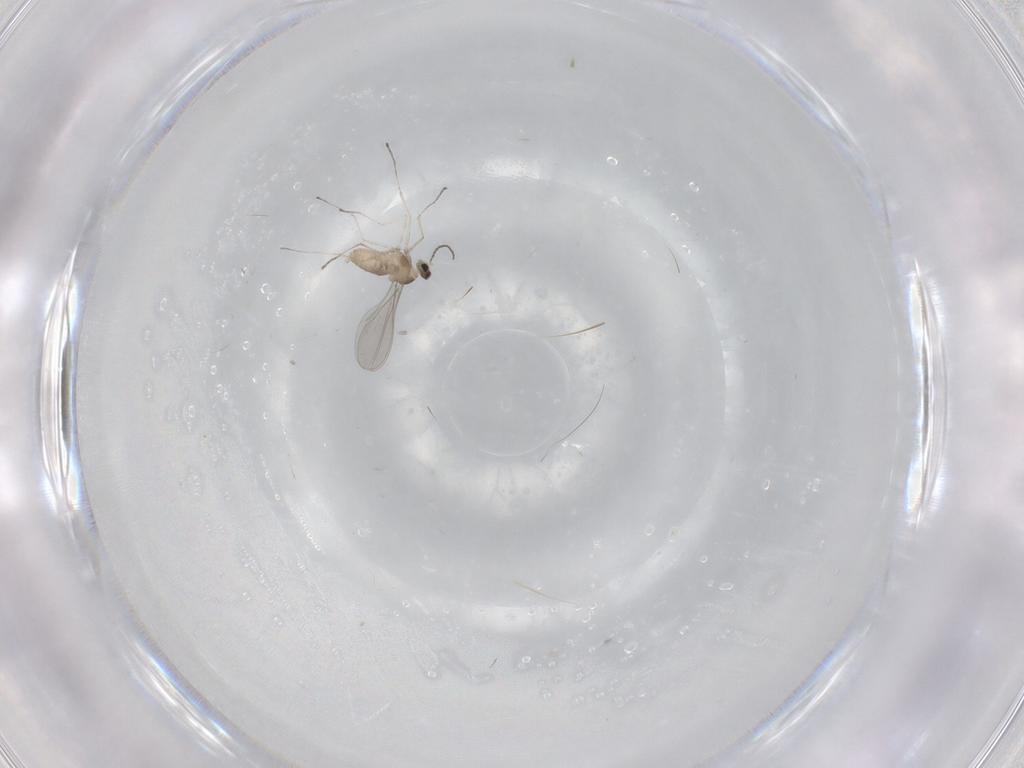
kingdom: Animalia
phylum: Arthropoda
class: Insecta
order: Diptera
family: Cecidomyiidae
